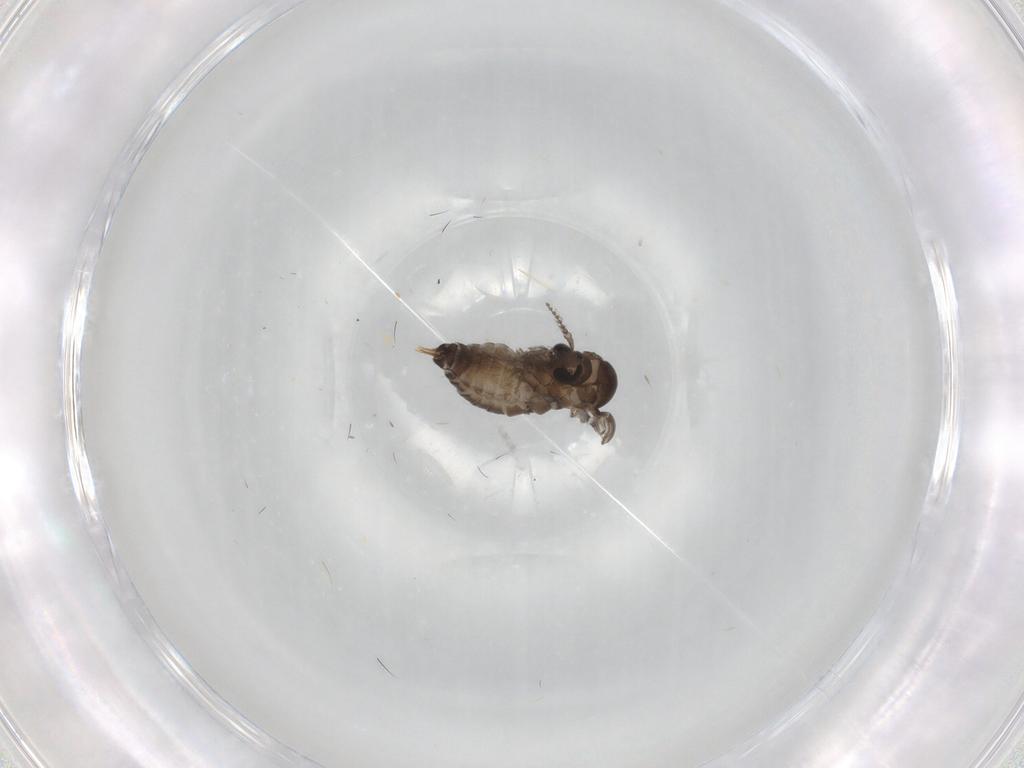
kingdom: Animalia
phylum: Arthropoda
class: Insecta
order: Diptera
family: Psychodidae
